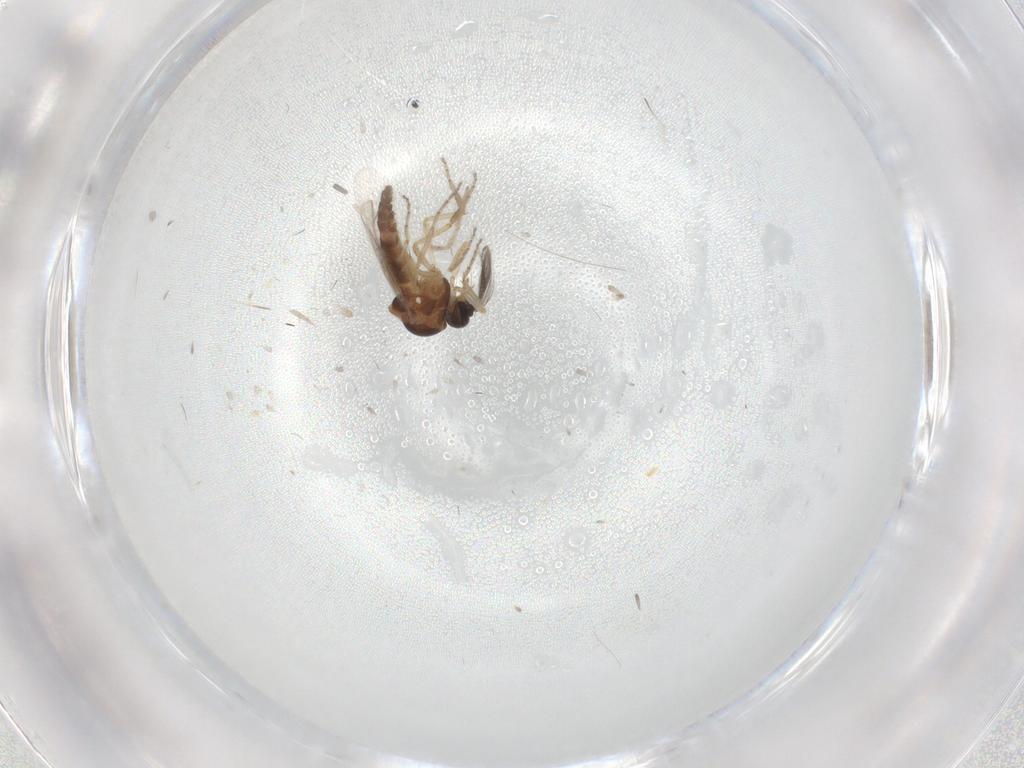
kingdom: Animalia
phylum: Arthropoda
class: Insecta
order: Diptera
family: Ceratopogonidae
